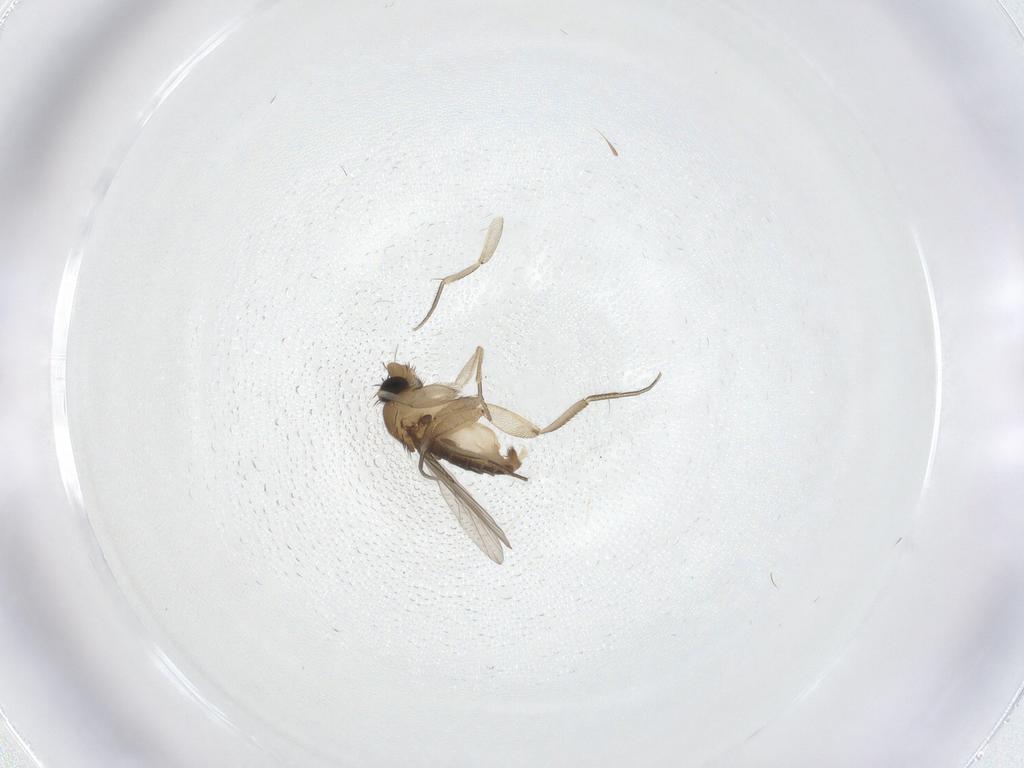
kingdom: Animalia
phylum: Arthropoda
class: Insecta
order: Diptera
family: Phoridae
